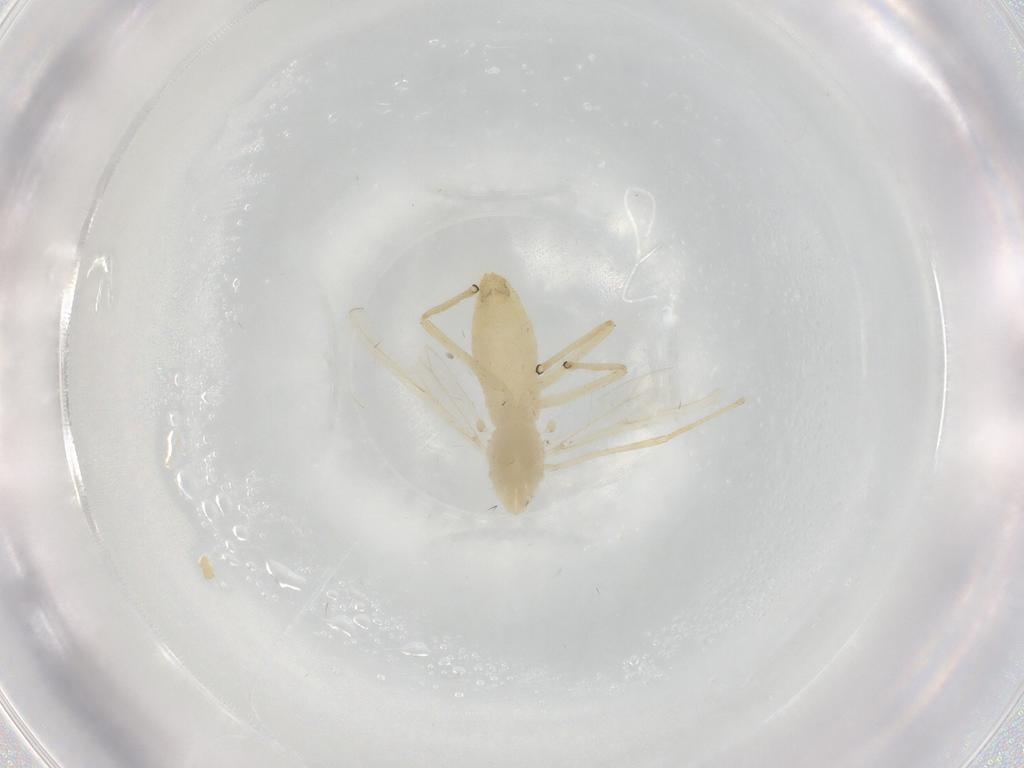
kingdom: Animalia
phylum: Arthropoda
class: Insecta
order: Diptera
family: Chironomidae
